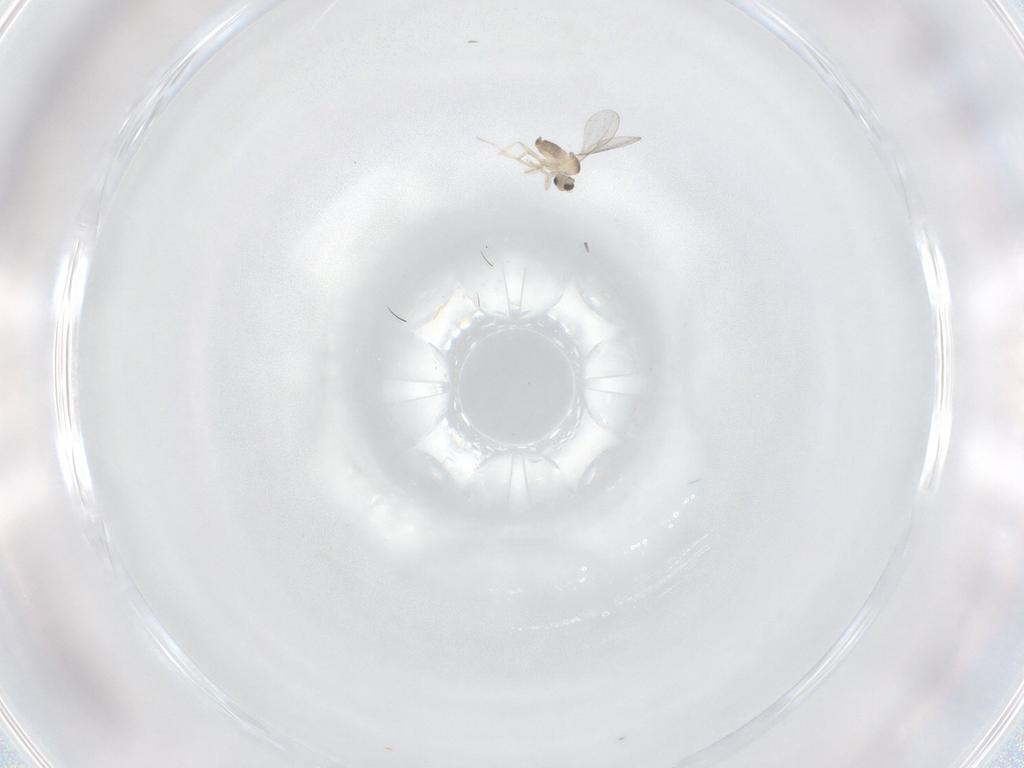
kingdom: Animalia
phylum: Arthropoda
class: Insecta
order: Diptera
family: Cecidomyiidae
